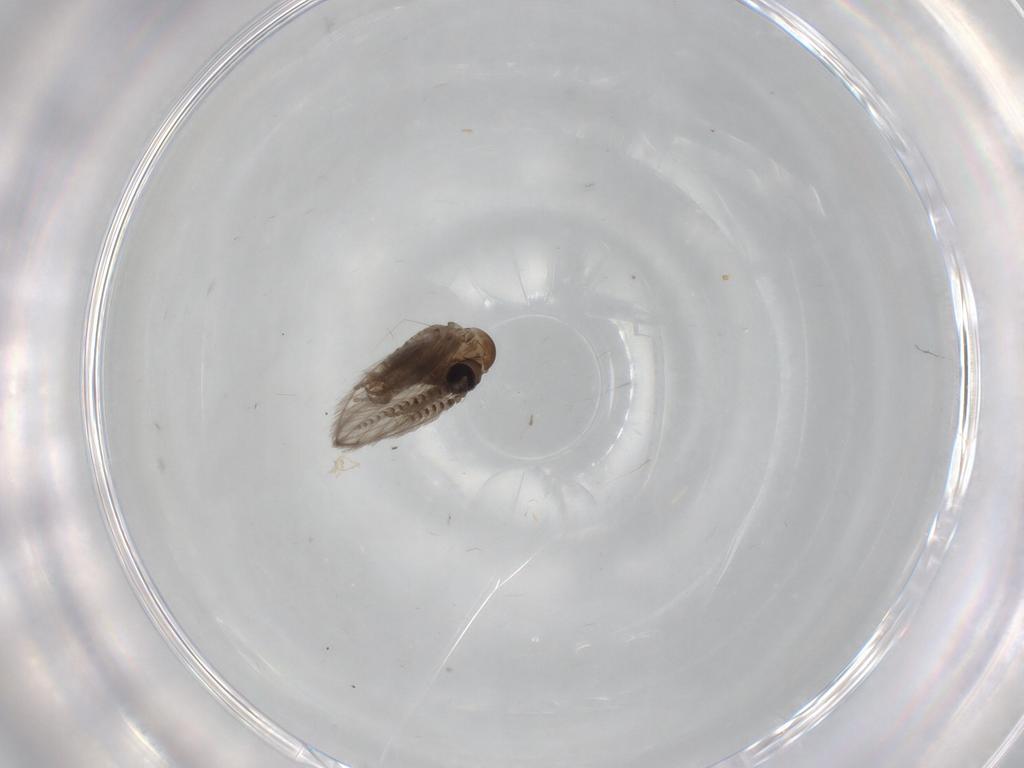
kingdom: Animalia
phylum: Arthropoda
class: Insecta
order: Diptera
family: Psychodidae
